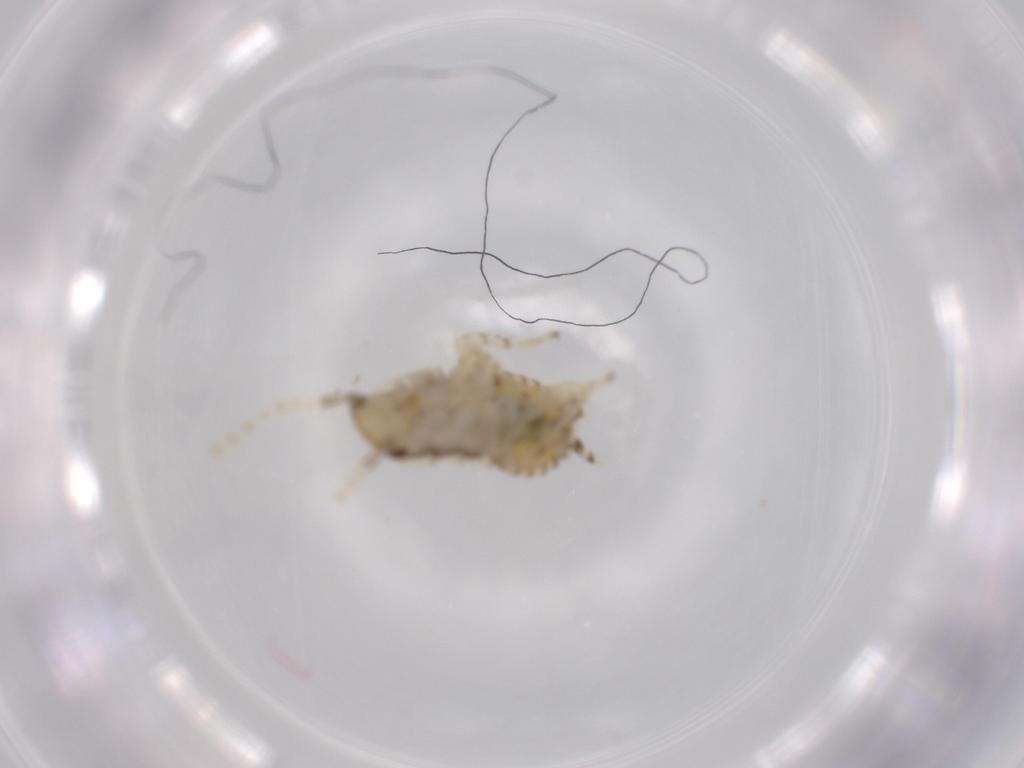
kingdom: Animalia
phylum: Arthropoda
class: Insecta
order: Blattodea
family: Ectobiidae
